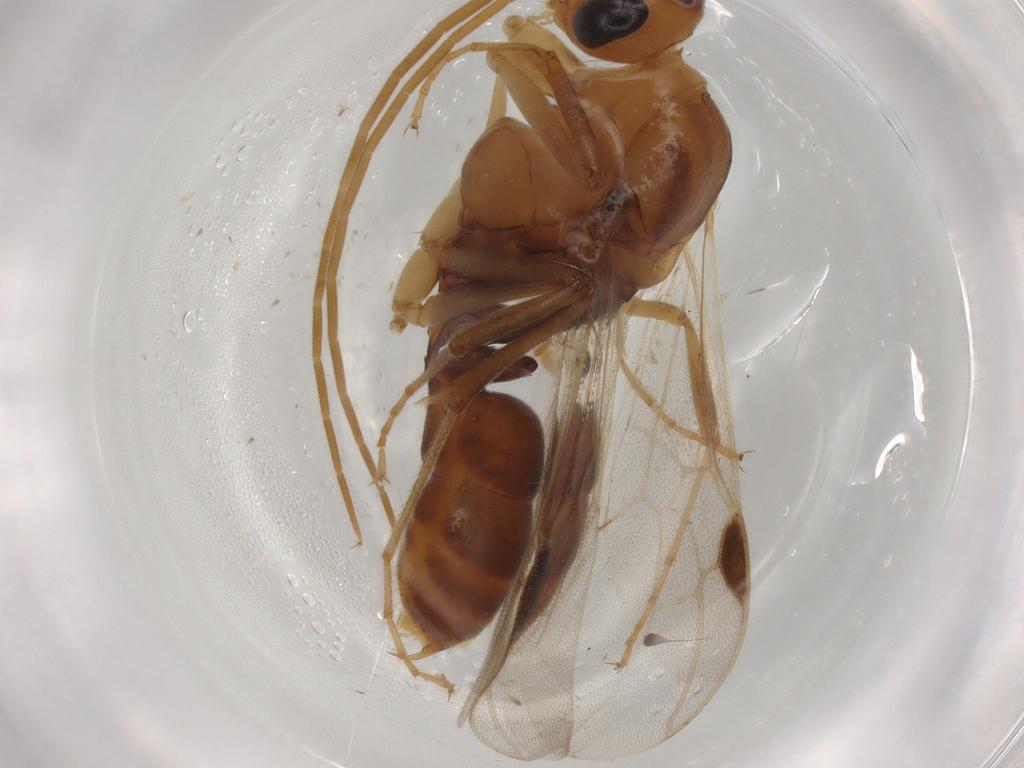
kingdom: Animalia
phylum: Arthropoda
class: Insecta
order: Hymenoptera
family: Formicidae
